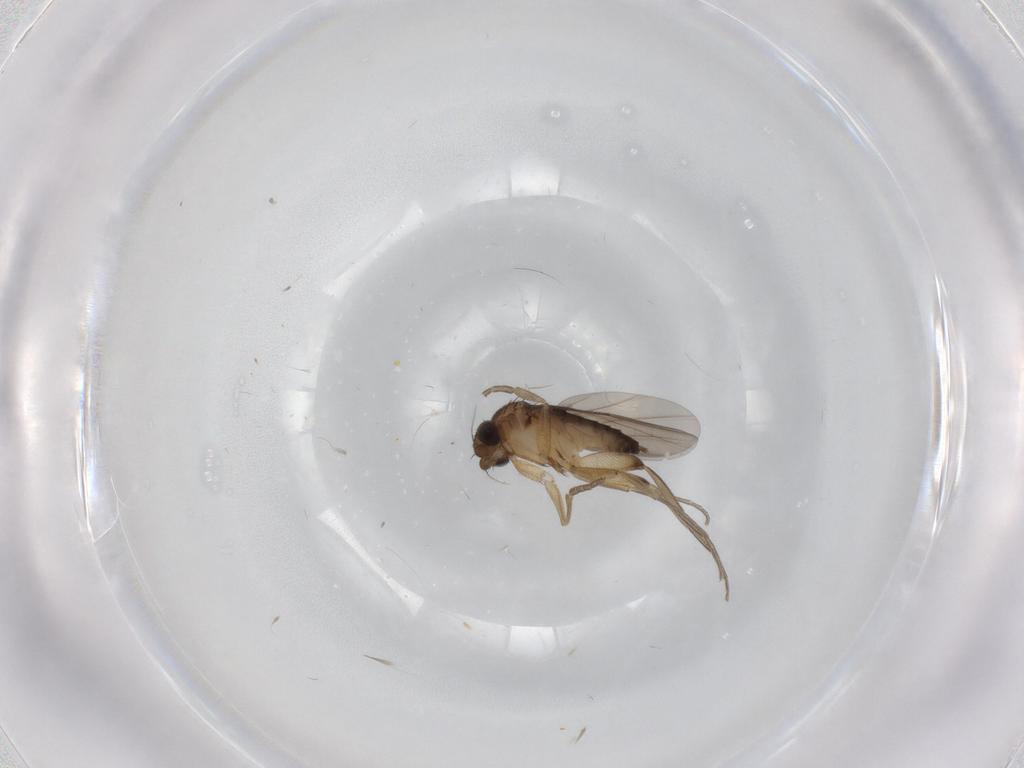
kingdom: Animalia
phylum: Arthropoda
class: Insecta
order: Diptera
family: Phoridae
